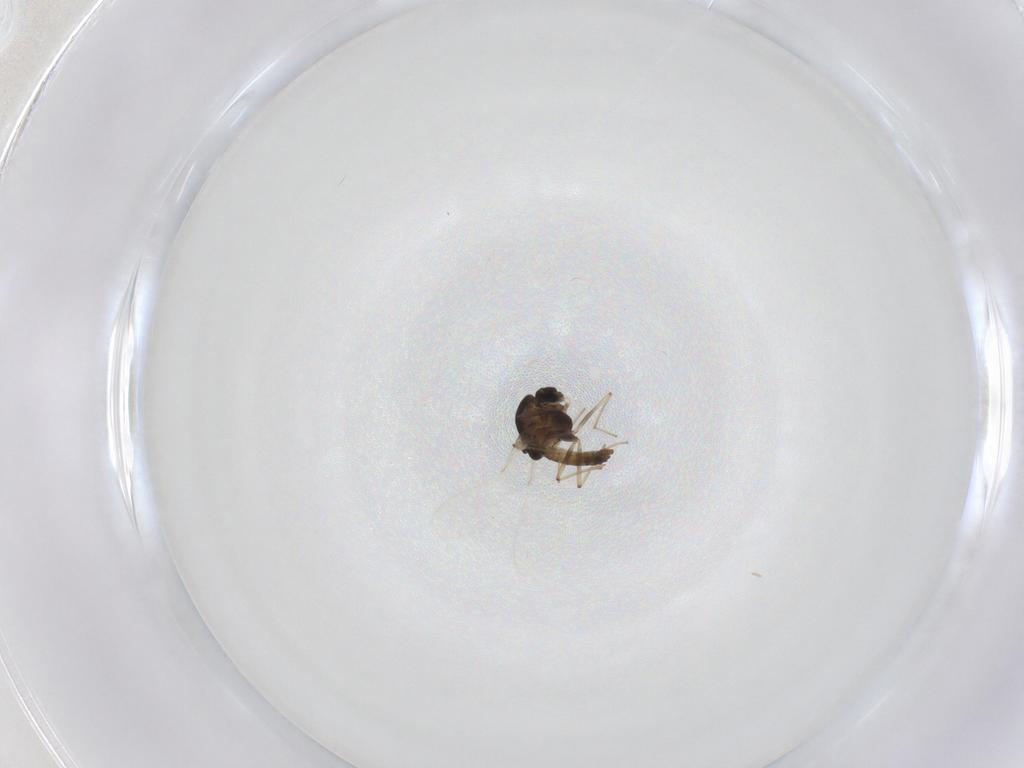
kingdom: Animalia
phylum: Arthropoda
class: Insecta
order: Diptera
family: Chironomidae
